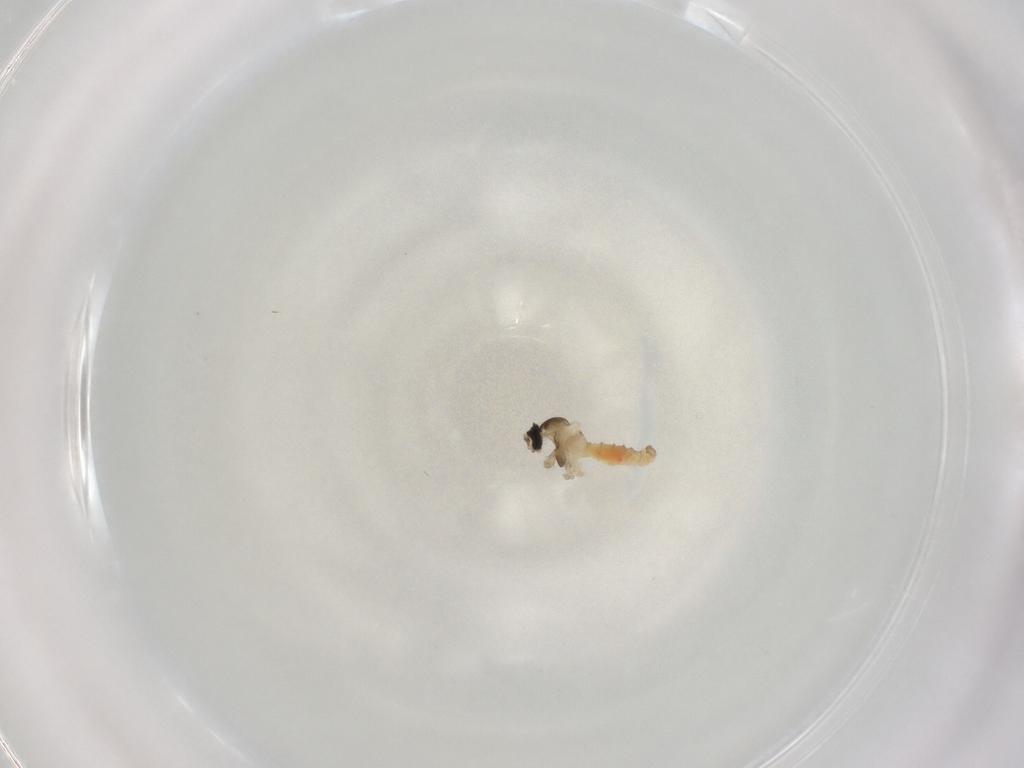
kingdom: Animalia
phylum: Arthropoda
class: Insecta
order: Diptera
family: Cecidomyiidae
